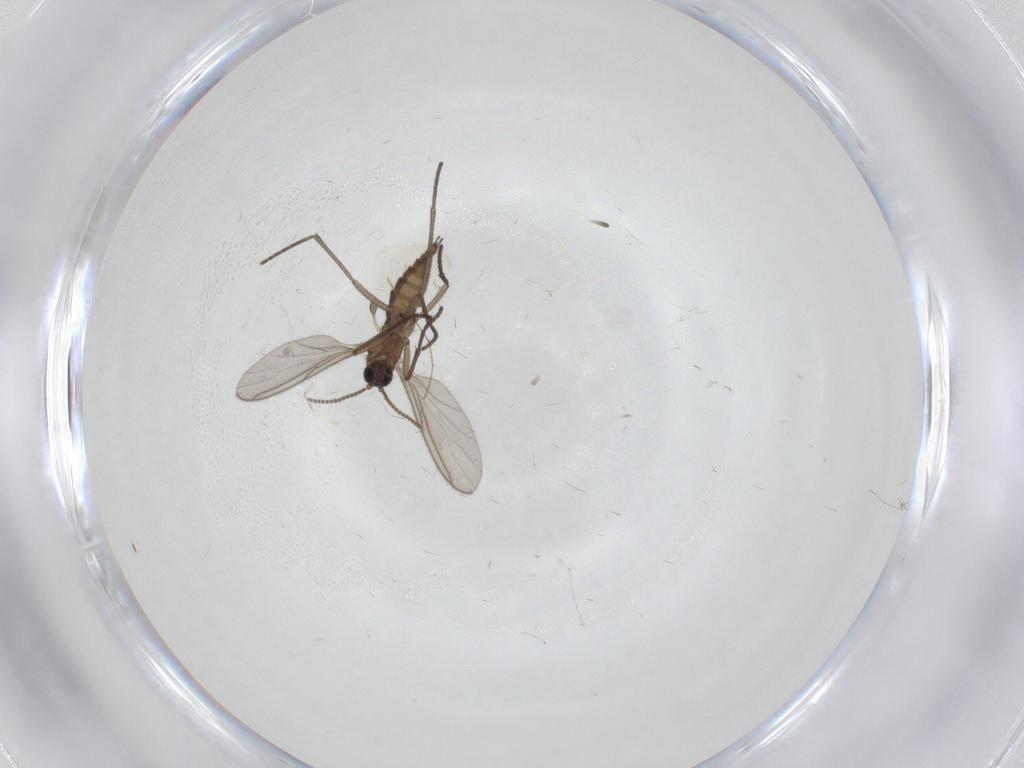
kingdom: Animalia
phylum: Arthropoda
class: Insecta
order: Diptera
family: Sciaridae
